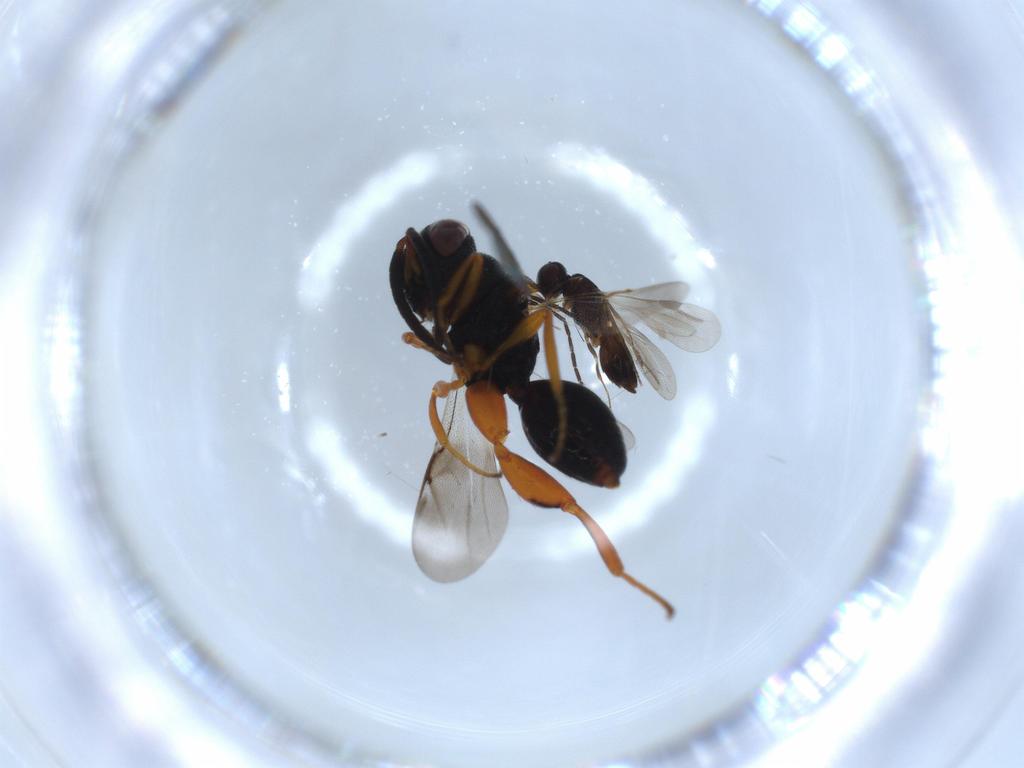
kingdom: Animalia
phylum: Arthropoda
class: Insecta
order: Hymenoptera
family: Chalcididae
